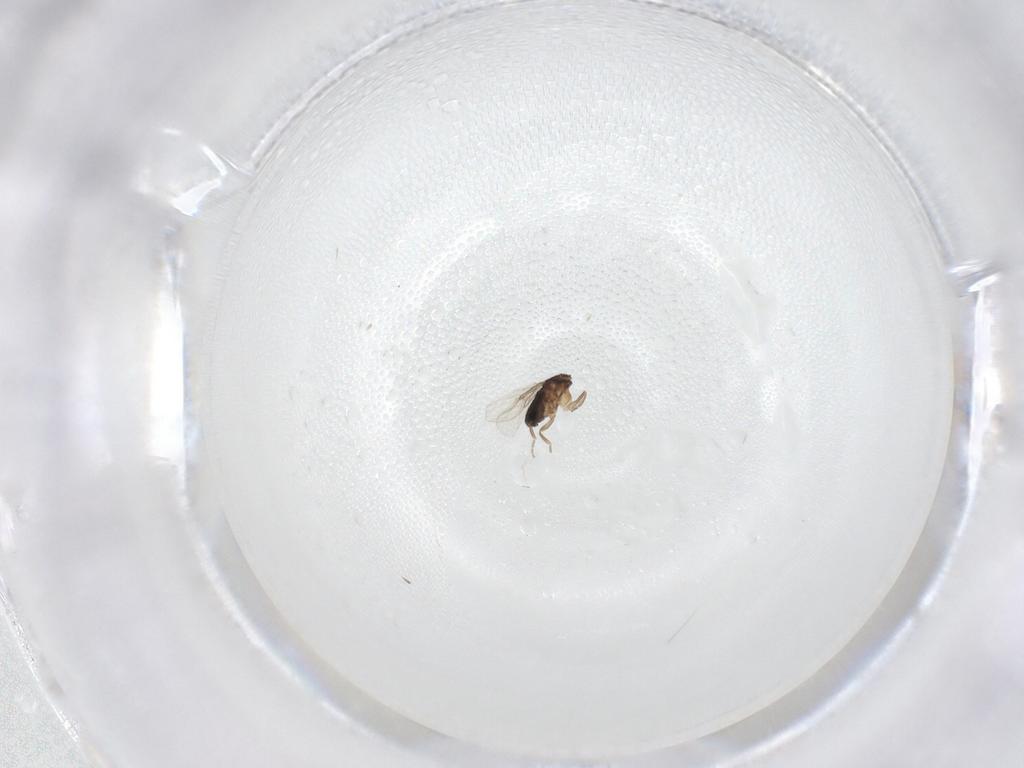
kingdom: Animalia
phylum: Arthropoda
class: Insecta
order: Diptera
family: Phoridae
